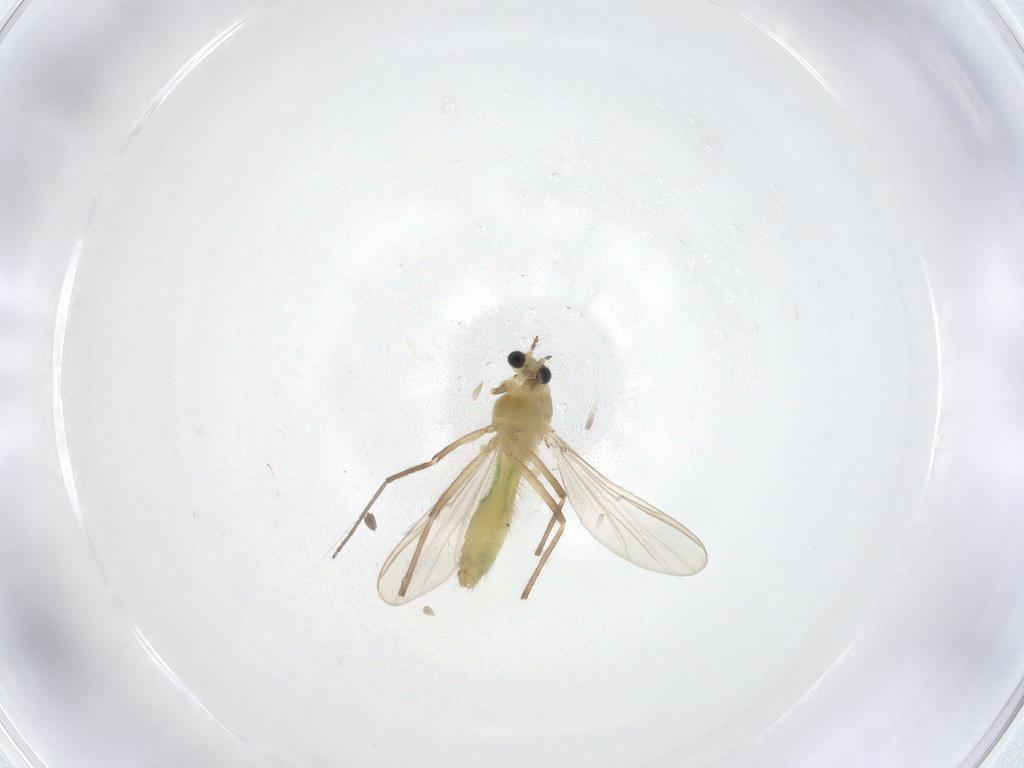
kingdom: Animalia
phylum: Arthropoda
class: Insecta
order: Diptera
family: Chironomidae
